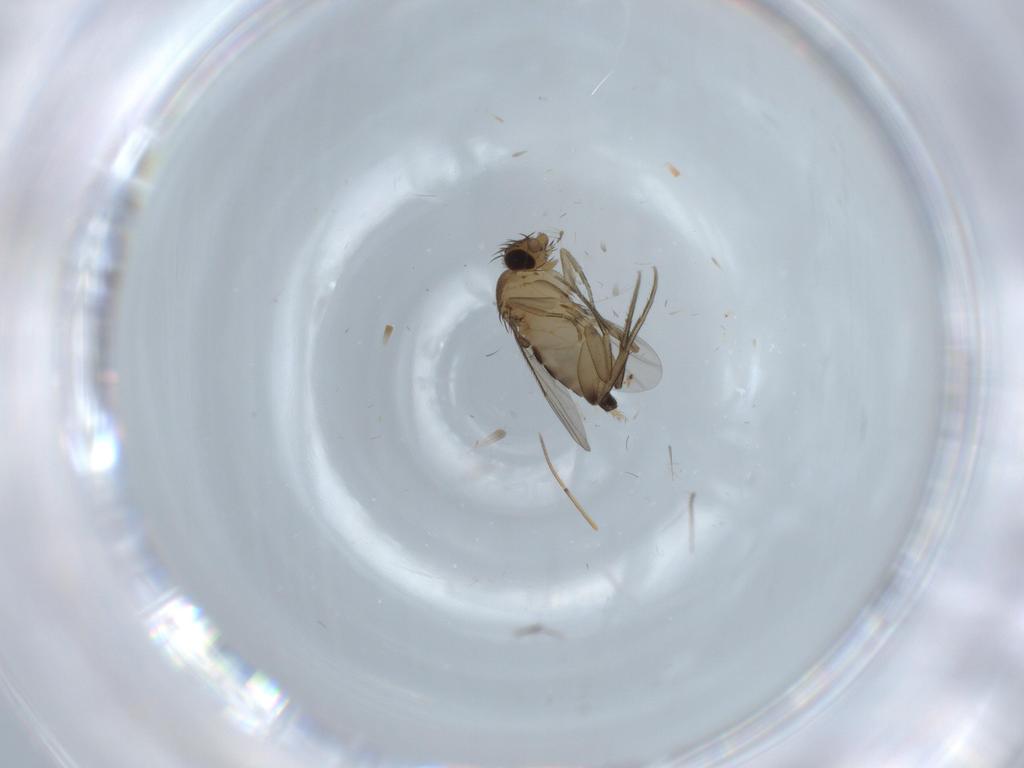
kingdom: Animalia
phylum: Arthropoda
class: Insecta
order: Diptera
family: Ceratopogonidae
